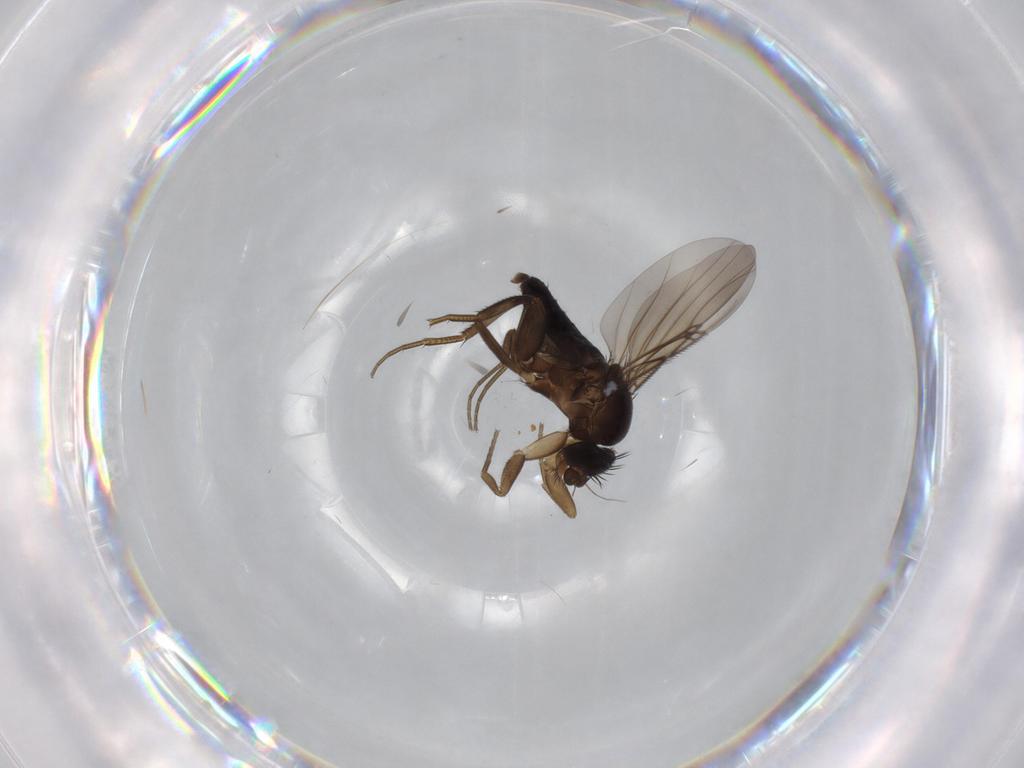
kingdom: Animalia
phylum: Arthropoda
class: Insecta
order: Diptera
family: Phoridae
